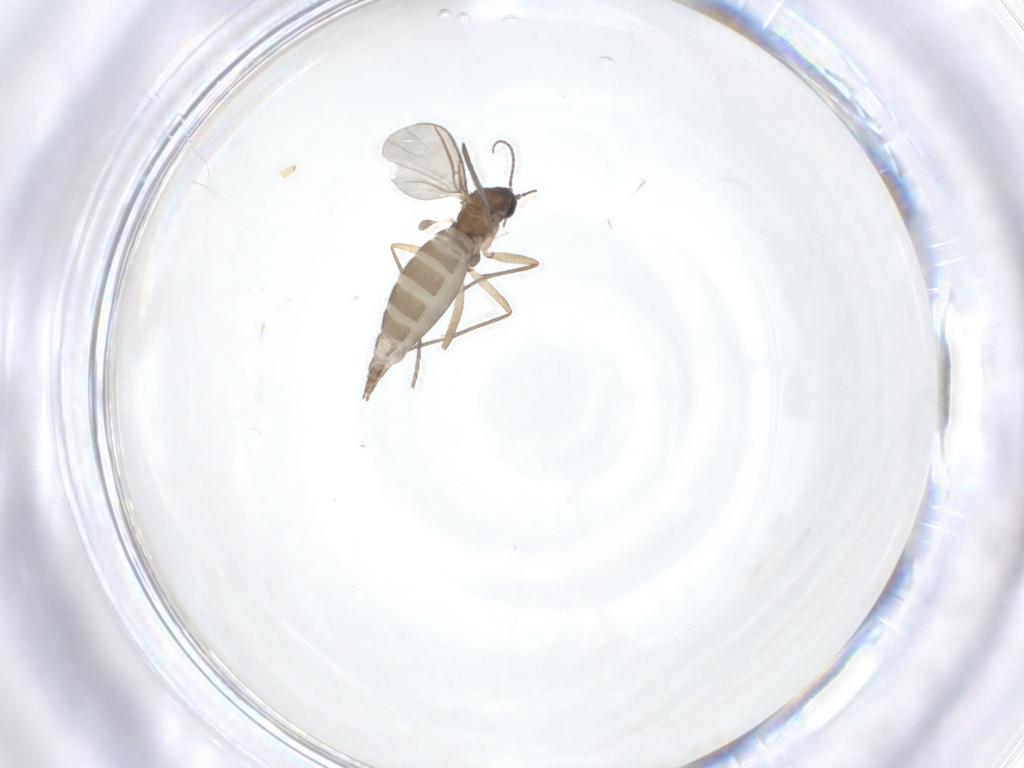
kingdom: Animalia
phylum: Arthropoda
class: Insecta
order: Diptera
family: Sciaridae
